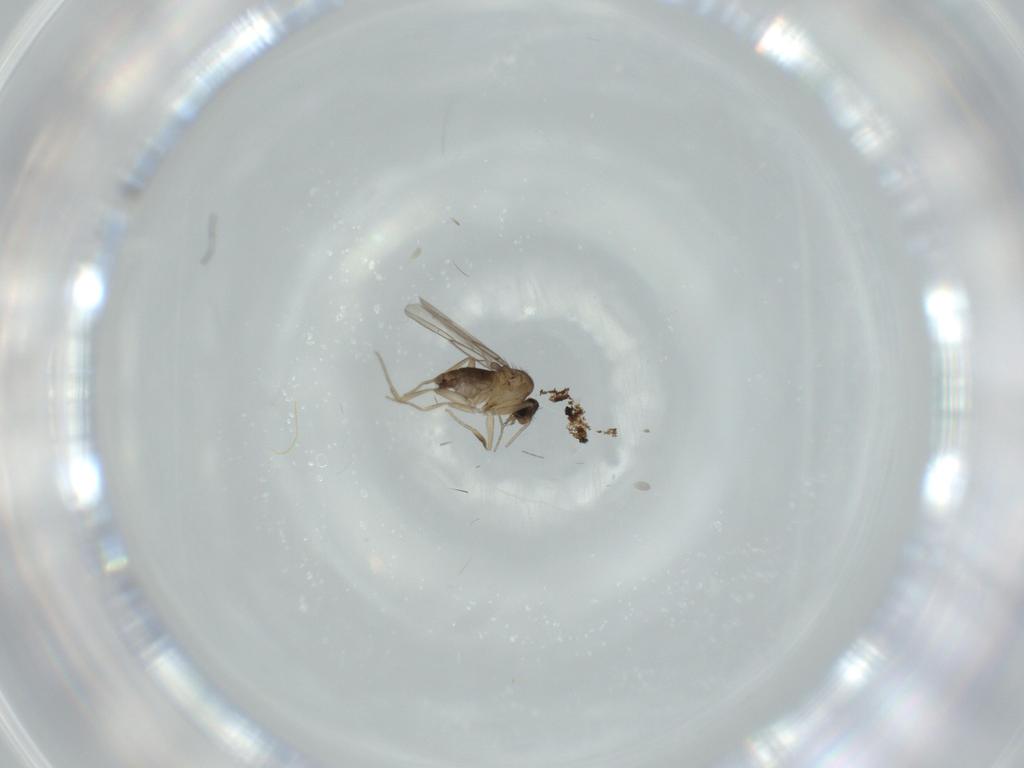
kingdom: Animalia
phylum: Arthropoda
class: Insecta
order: Diptera
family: Phoridae
